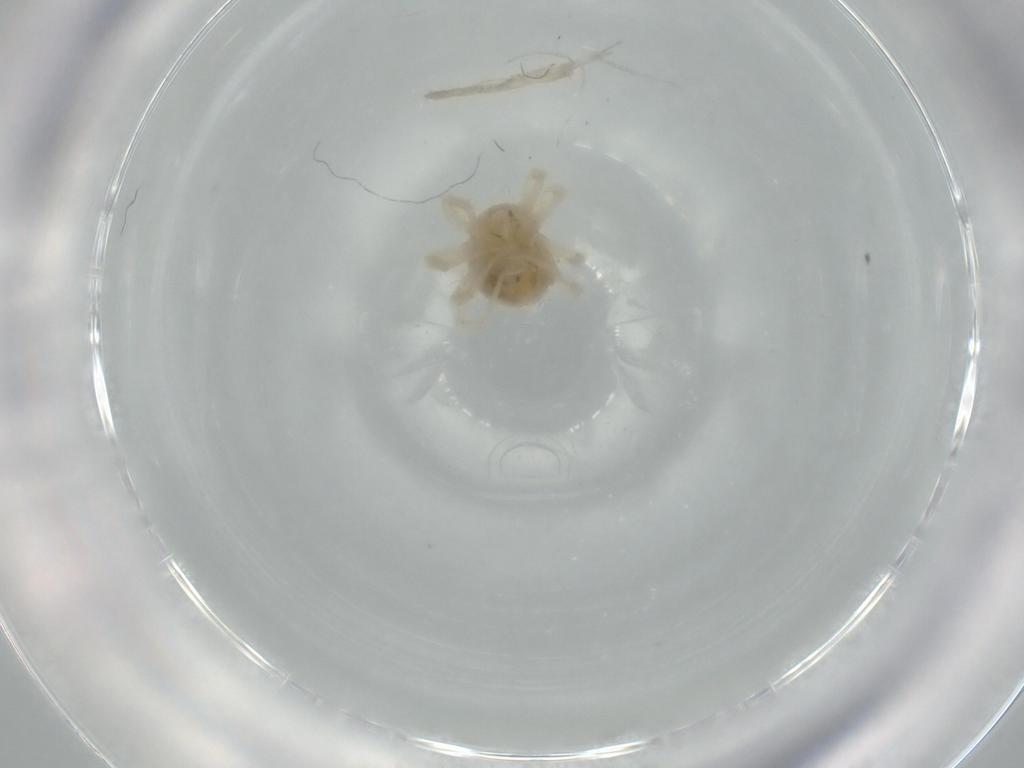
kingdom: Animalia
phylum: Arthropoda
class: Arachnida
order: Trombidiformes
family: Anystidae
